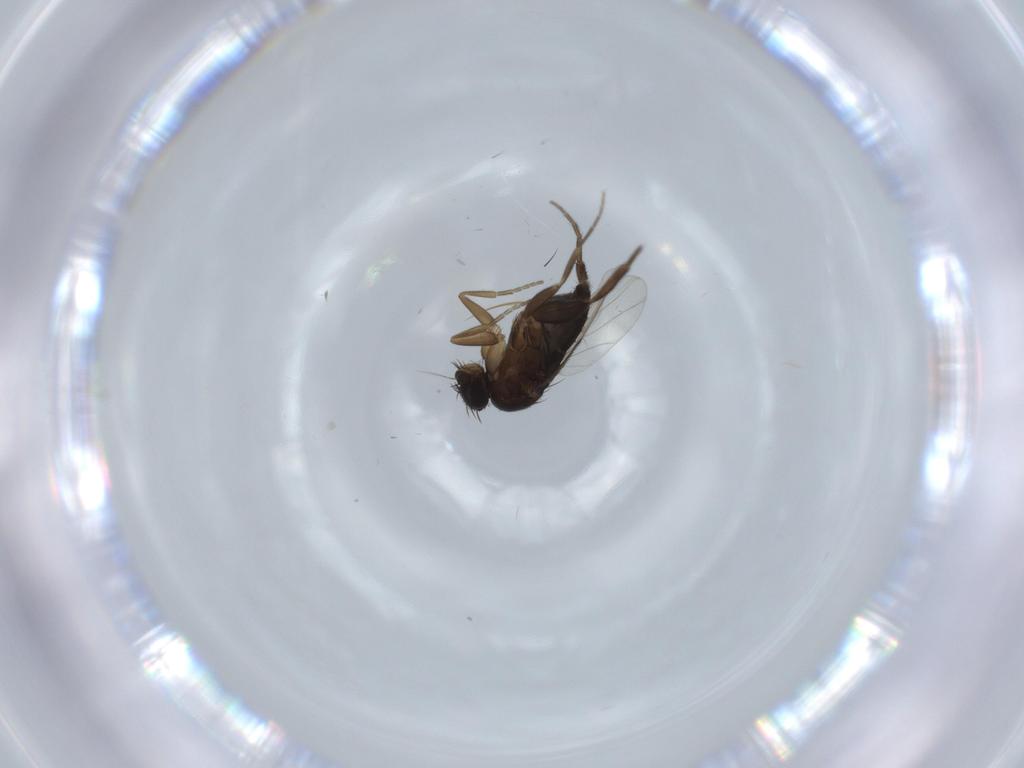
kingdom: Animalia
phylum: Arthropoda
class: Insecta
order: Diptera
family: Phoridae
